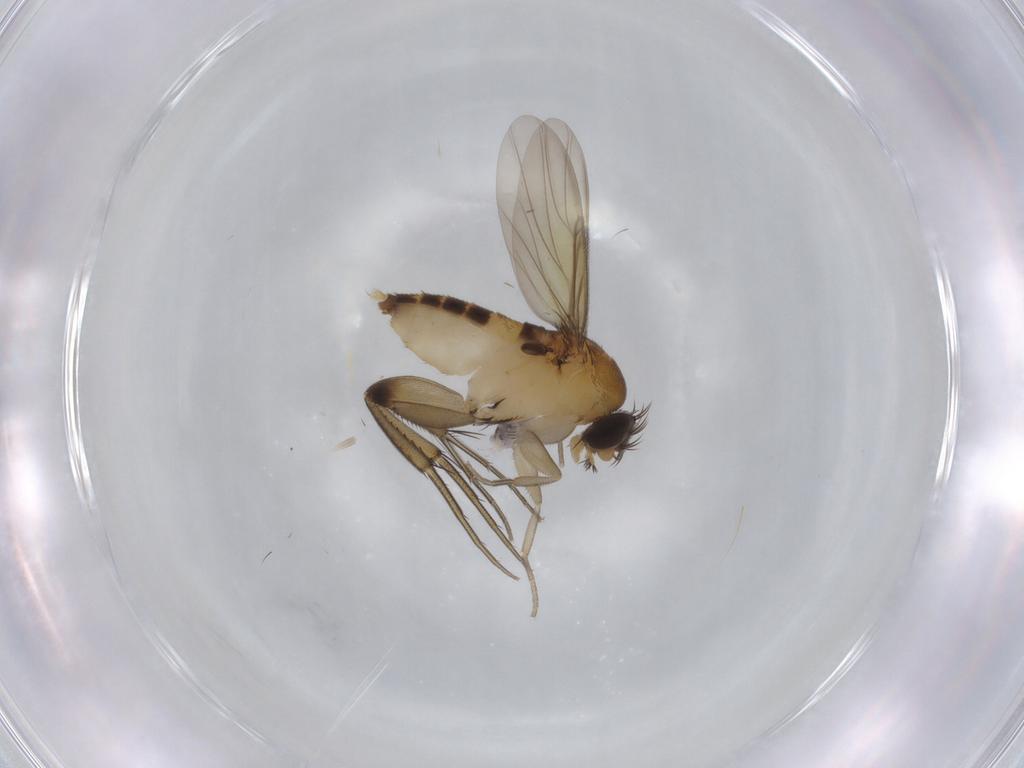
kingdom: Animalia
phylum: Arthropoda
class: Insecta
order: Diptera
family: Phoridae
